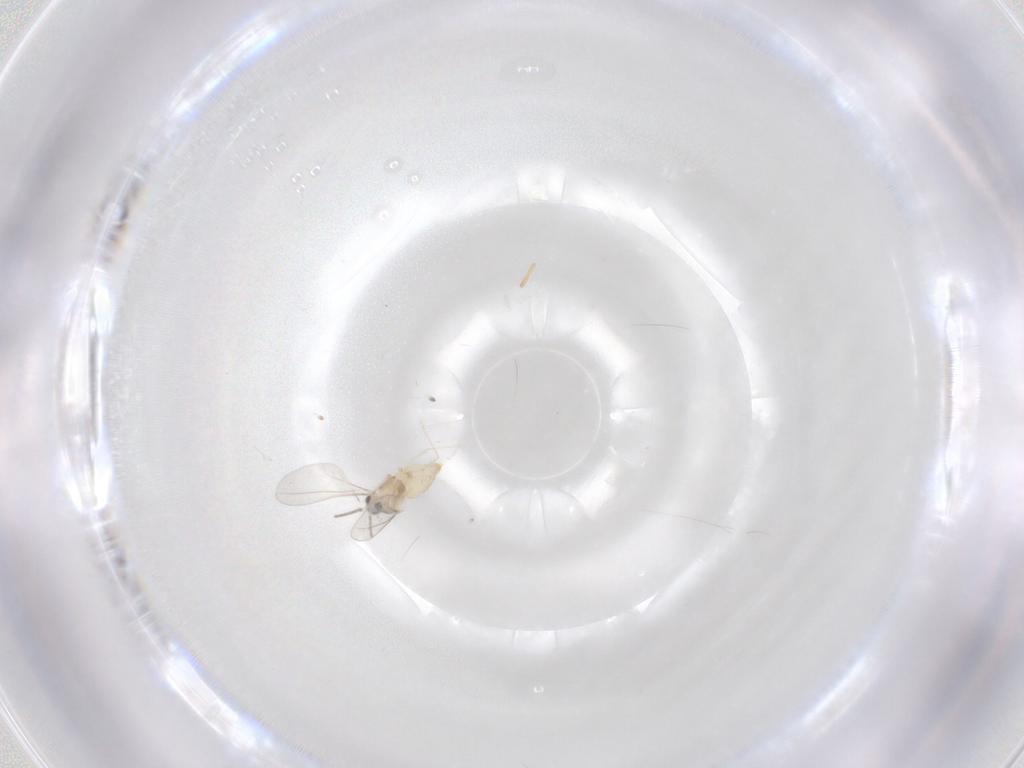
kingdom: Animalia
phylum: Arthropoda
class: Insecta
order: Diptera
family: Cecidomyiidae
